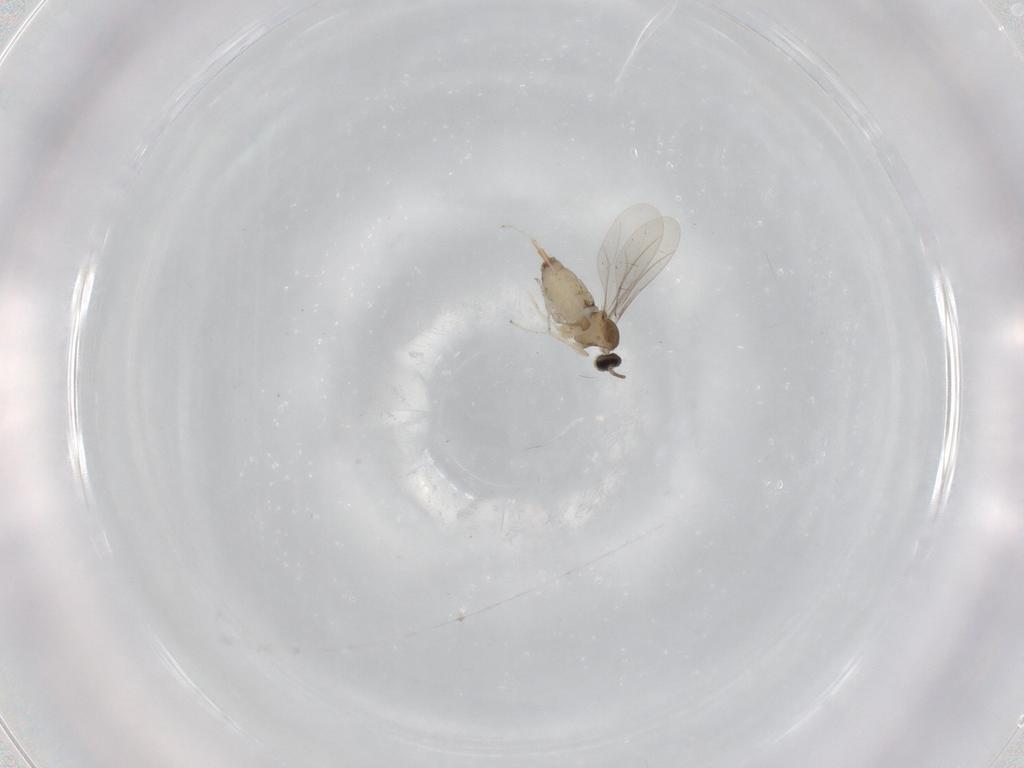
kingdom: Animalia
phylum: Arthropoda
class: Insecta
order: Diptera
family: Cecidomyiidae
